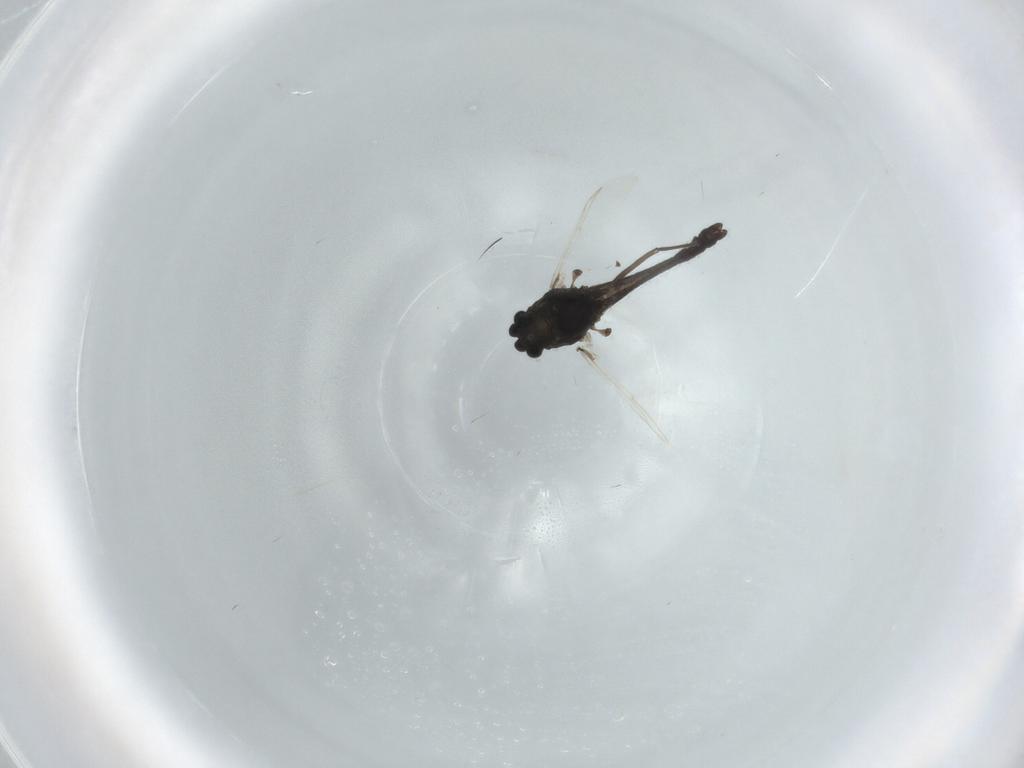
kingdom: Animalia
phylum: Arthropoda
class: Insecta
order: Diptera
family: Chironomidae
